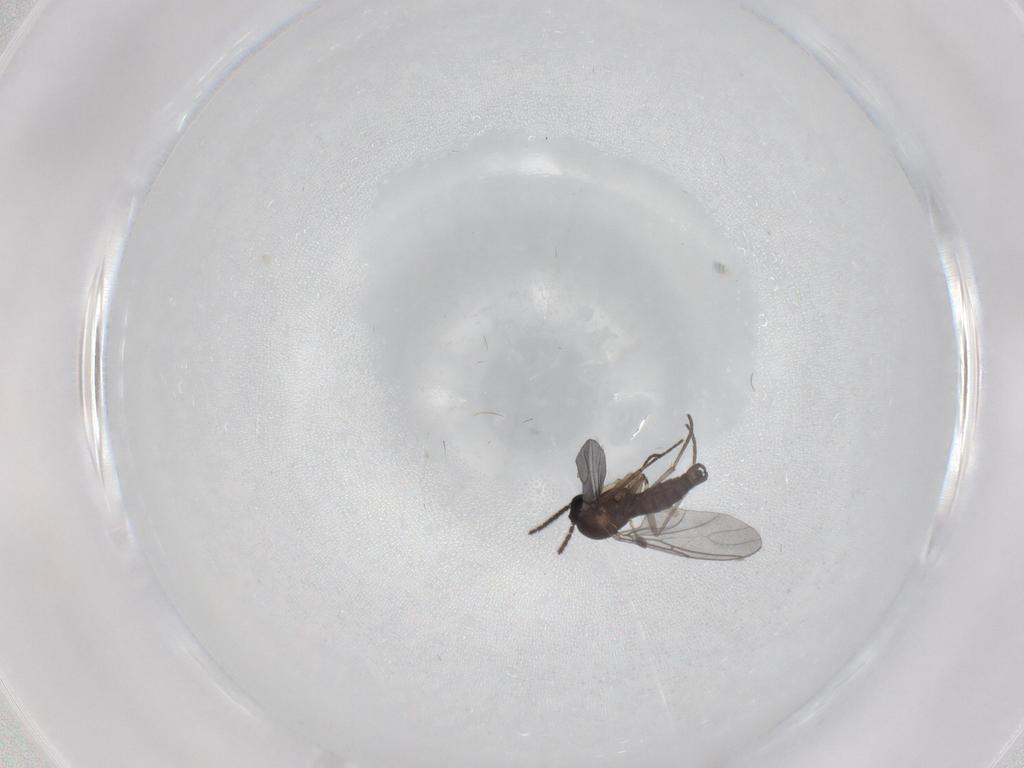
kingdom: Animalia
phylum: Arthropoda
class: Insecta
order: Diptera
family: Sciaridae
